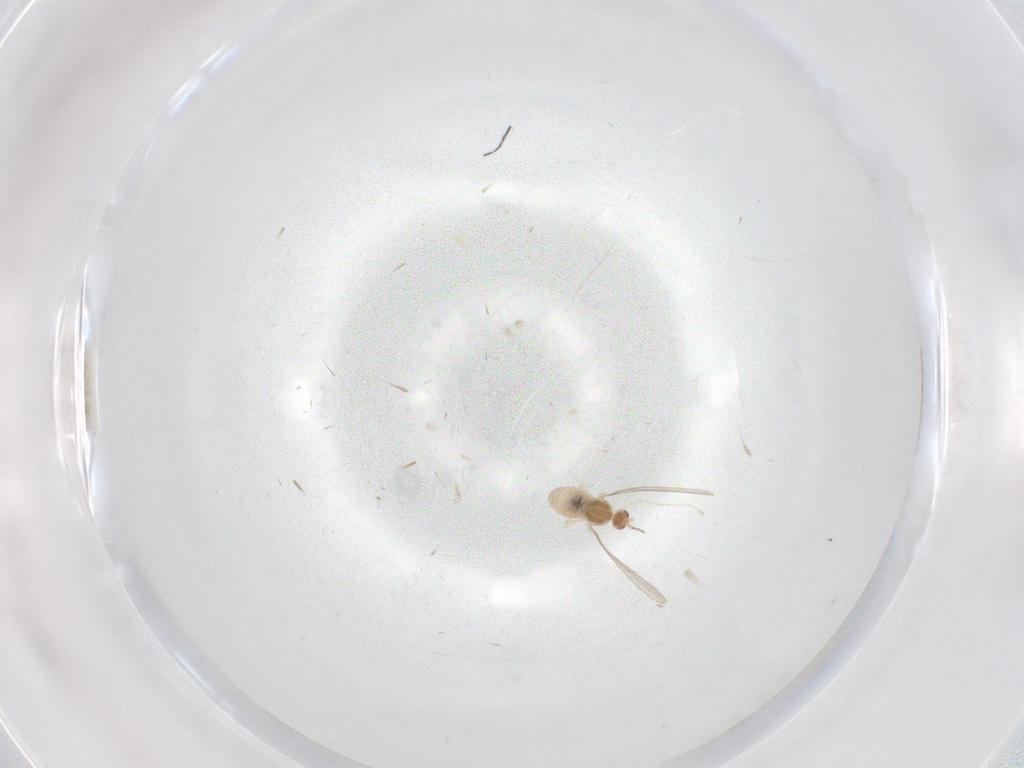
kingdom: Animalia
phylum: Arthropoda
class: Insecta
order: Diptera
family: Cecidomyiidae
